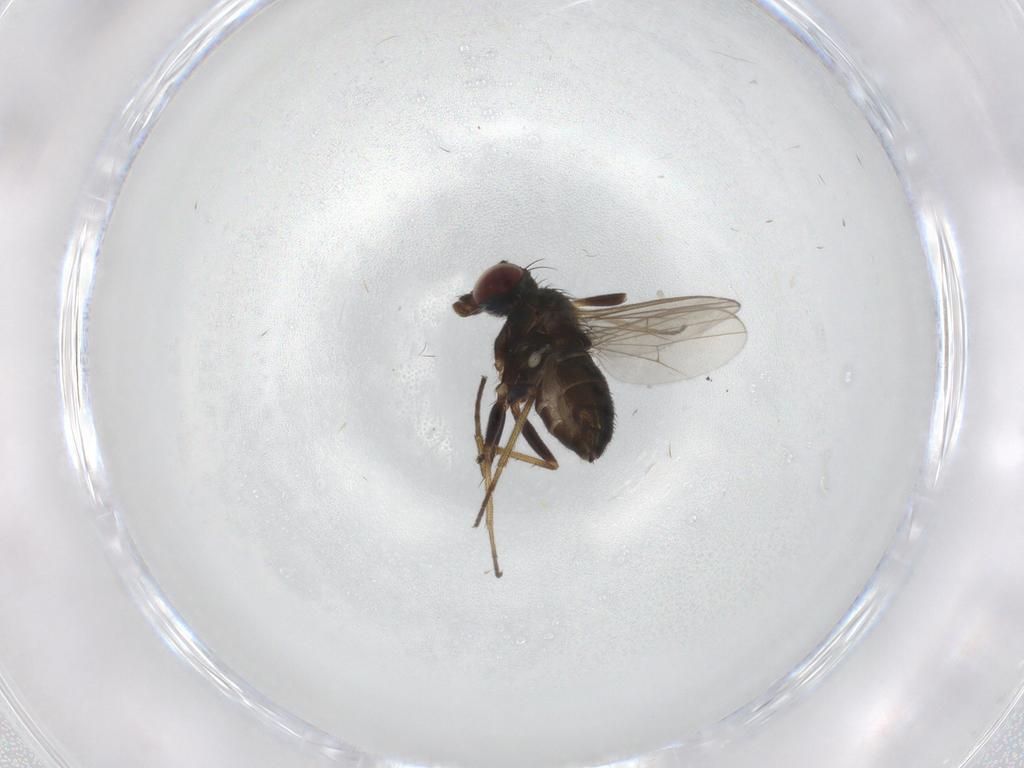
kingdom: Animalia
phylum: Arthropoda
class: Insecta
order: Diptera
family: Dolichopodidae
